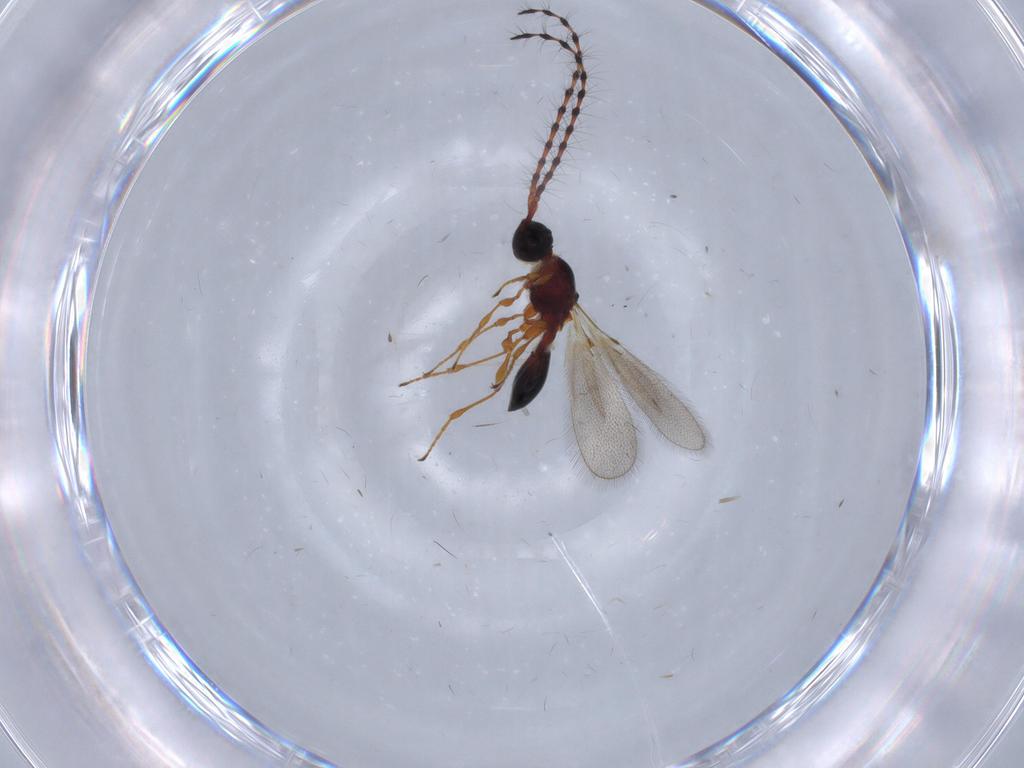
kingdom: Animalia
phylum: Arthropoda
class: Insecta
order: Hymenoptera
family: Diapriidae
